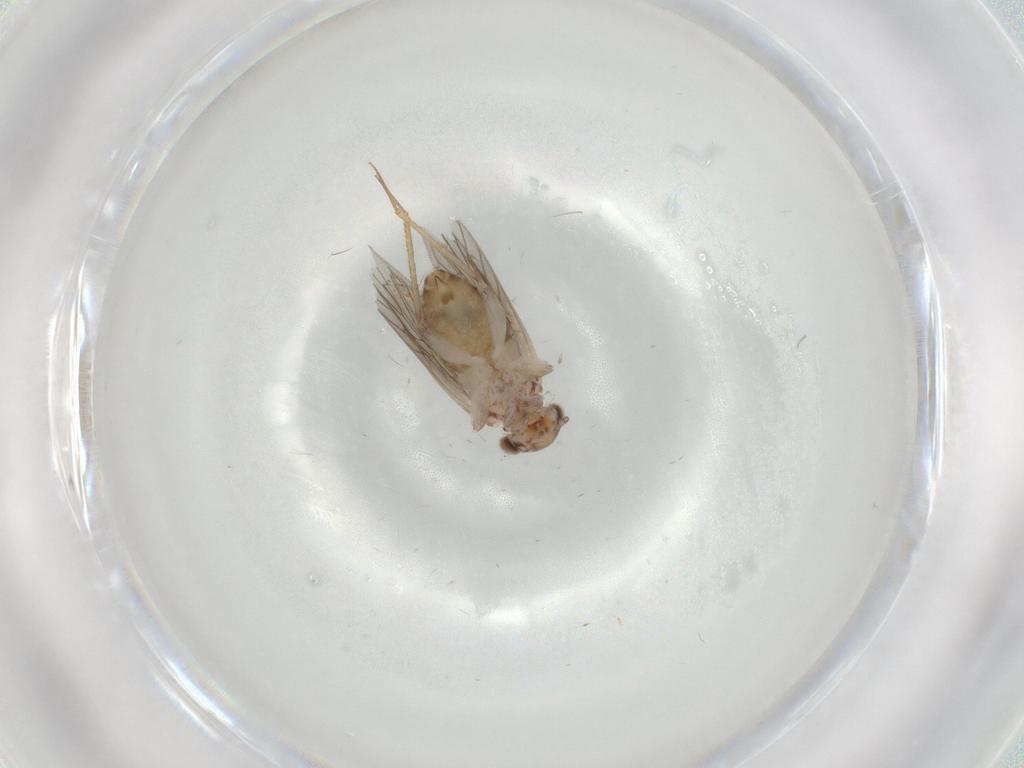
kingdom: Animalia
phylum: Arthropoda
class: Insecta
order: Psocodea
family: Lepidopsocidae
